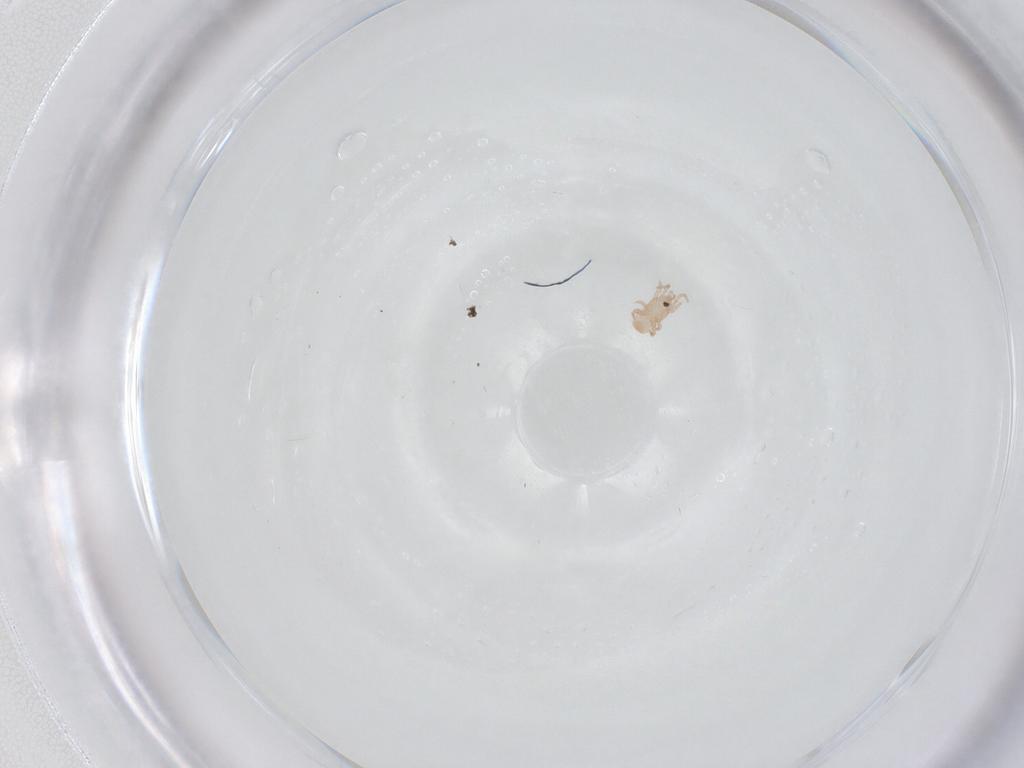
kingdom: Animalia
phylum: Arthropoda
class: Arachnida
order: Mesostigmata
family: Digamasellidae
